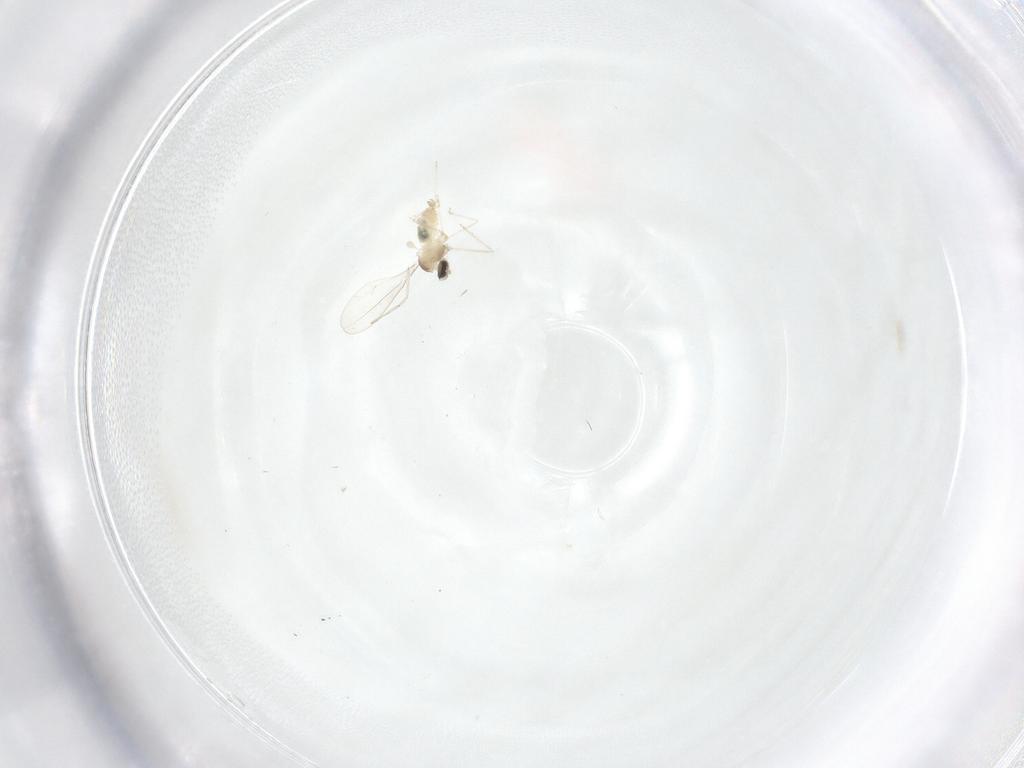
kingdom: Animalia
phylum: Arthropoda
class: Insecta
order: Diptera
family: Cecidomyiidae
